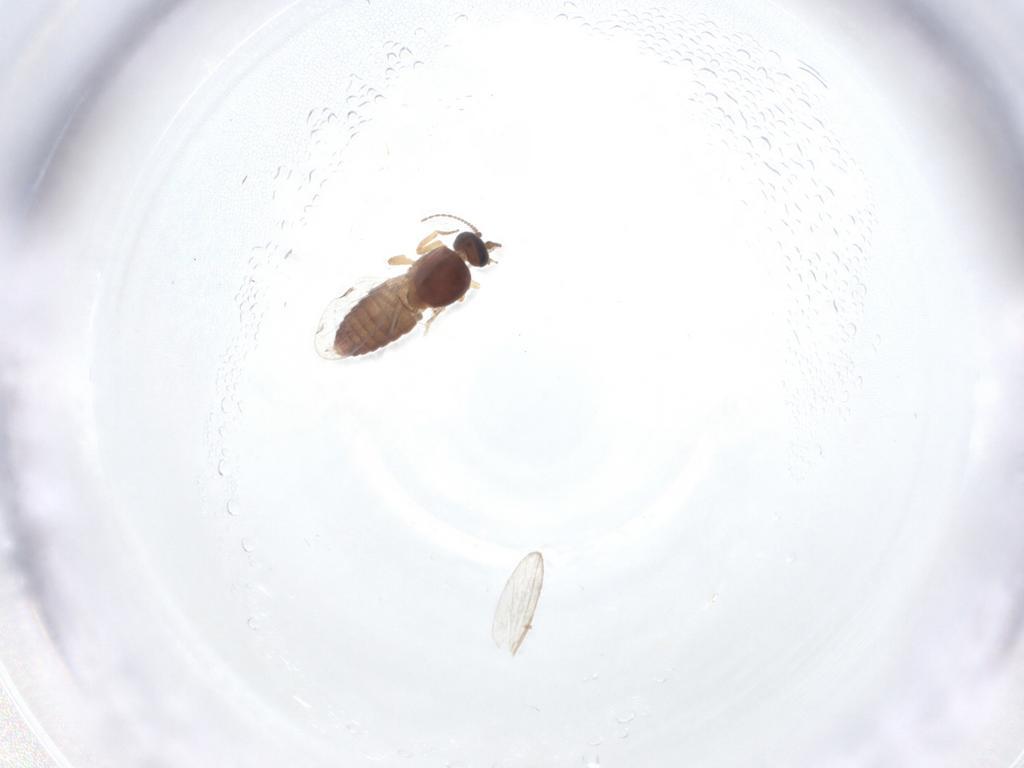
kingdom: Animalia
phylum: Arthropoda
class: Insecta
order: Diptera
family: Ceratopogonidae
